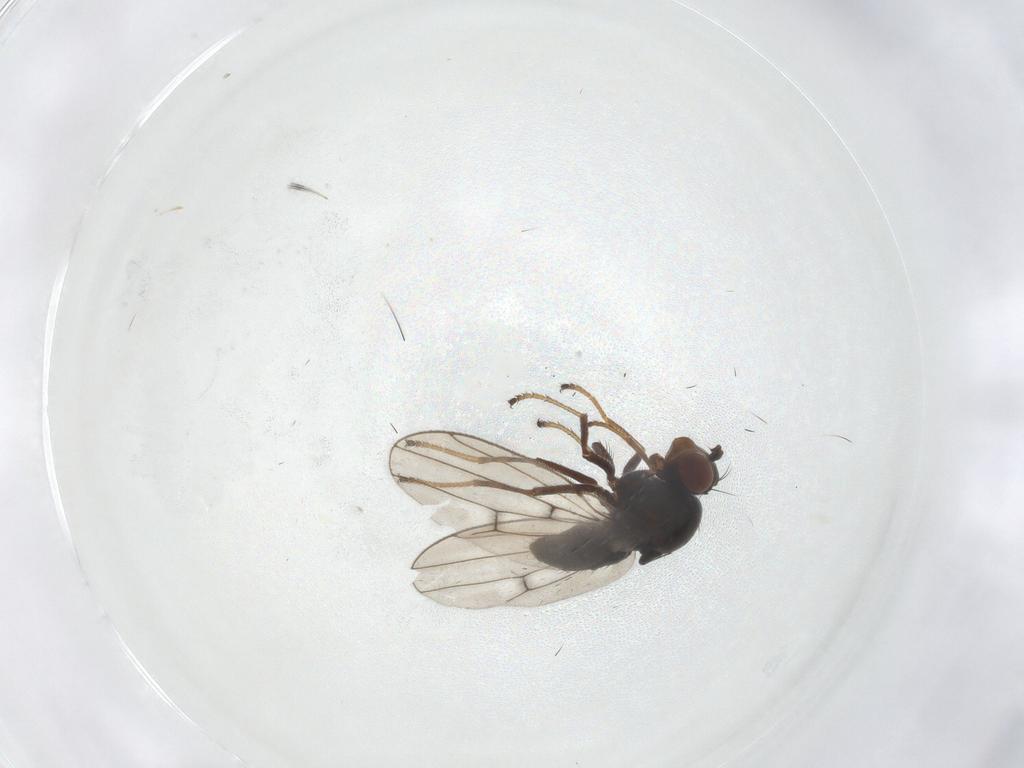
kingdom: Animalia
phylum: Arthropoda
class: Insecta
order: Diptera
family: Ephydridae
